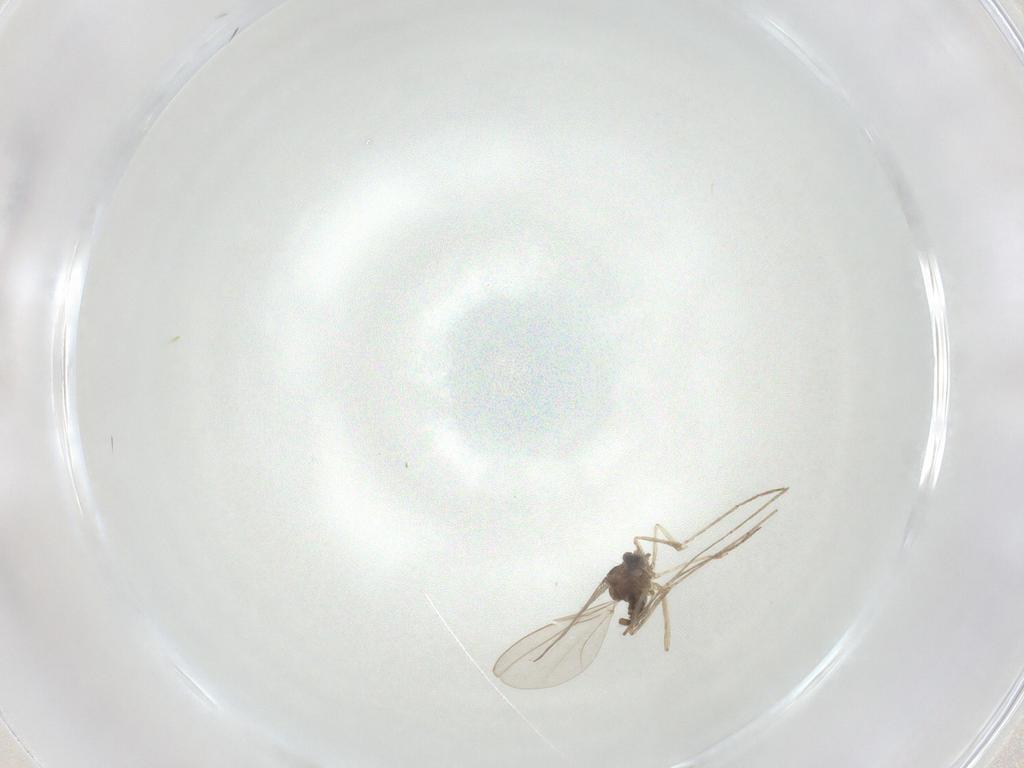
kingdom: Animalia
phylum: Arthropoda
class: Insecta
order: Diptera
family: Cecidomyiidae
